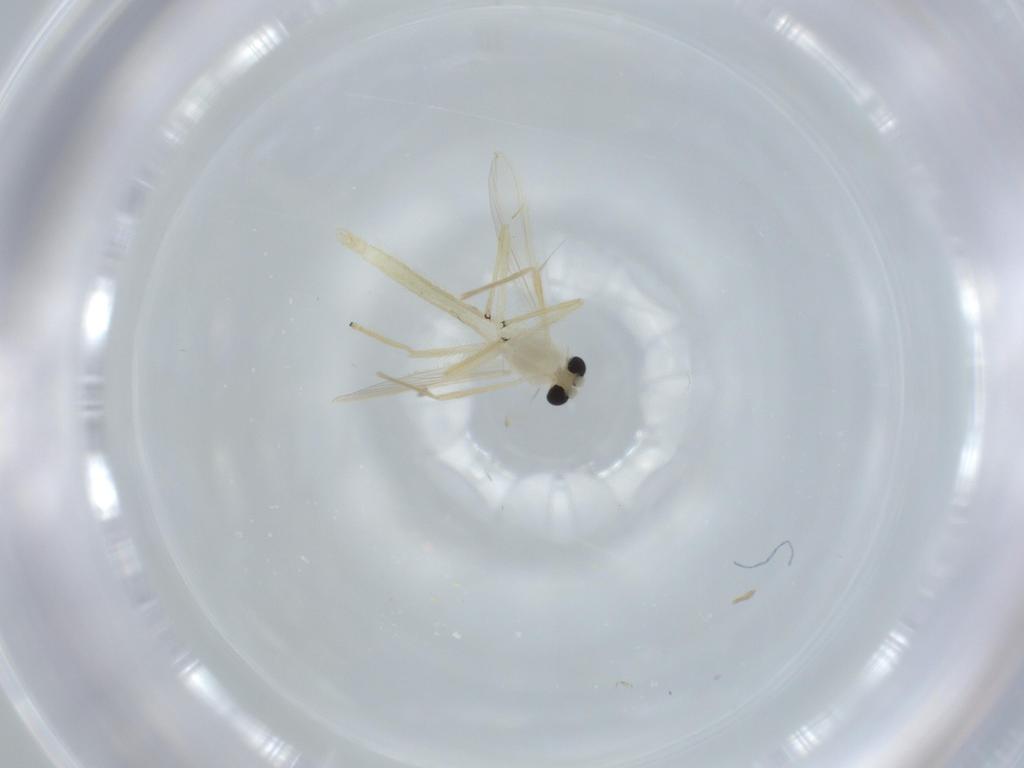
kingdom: Animalia
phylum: Arthropoda
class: Insecta
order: Diptera
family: Chironomidae
